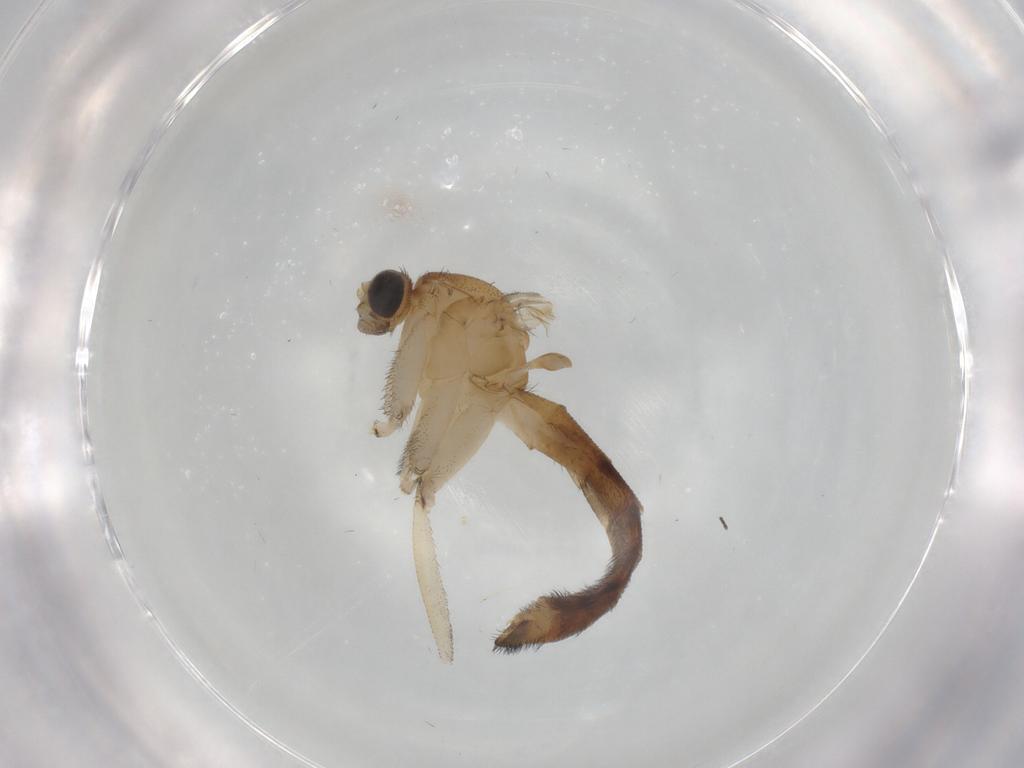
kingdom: Animalia
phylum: Arthropoda
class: Insecta
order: Diptera
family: Keroplatidae
